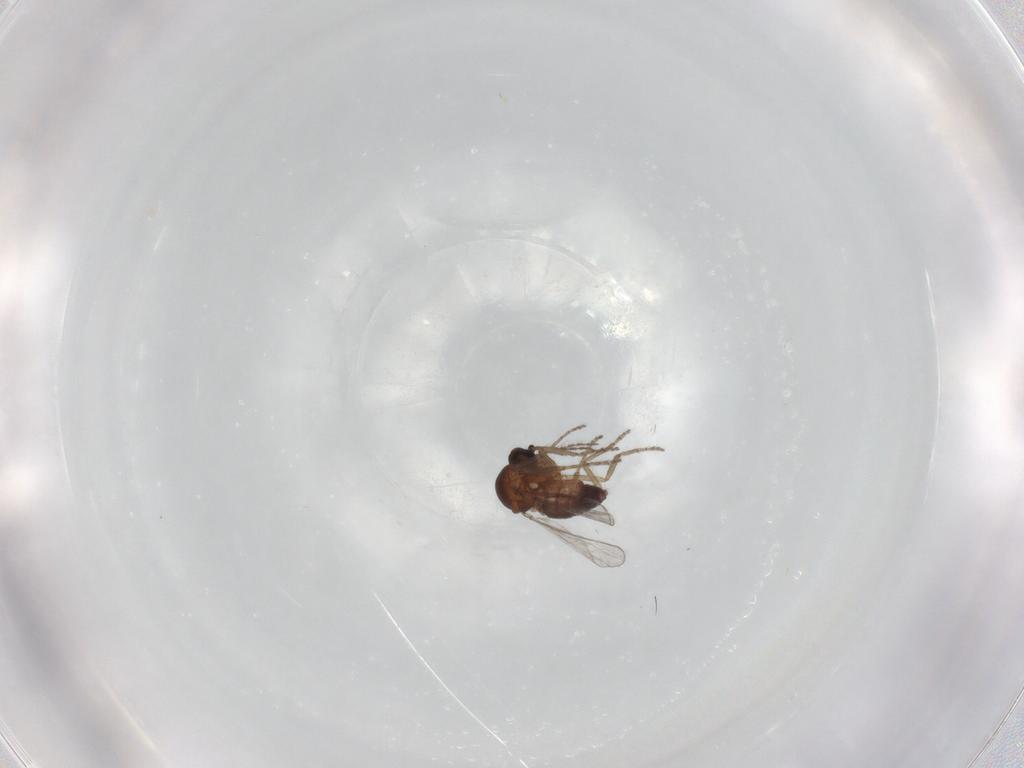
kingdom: Animalia
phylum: Arthropoda
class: Insecta
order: Diptera
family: Ceratopogonidae
